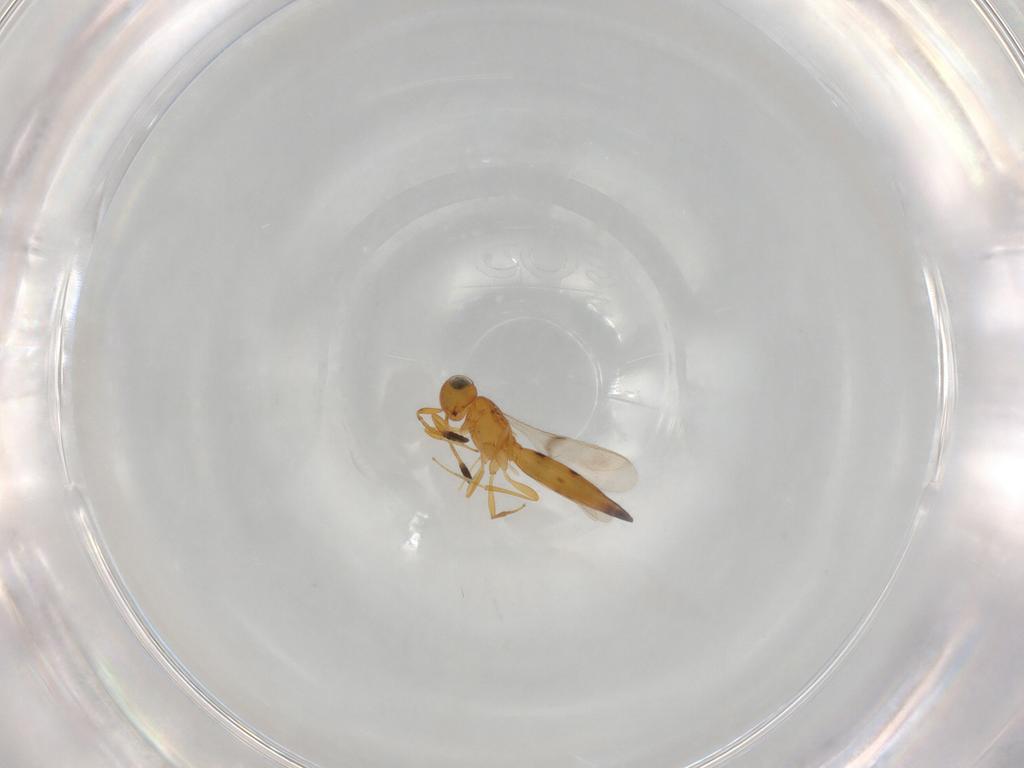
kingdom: Animalia
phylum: Arthropoda
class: Insecta
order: Hymenoptera
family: Scelionidae
